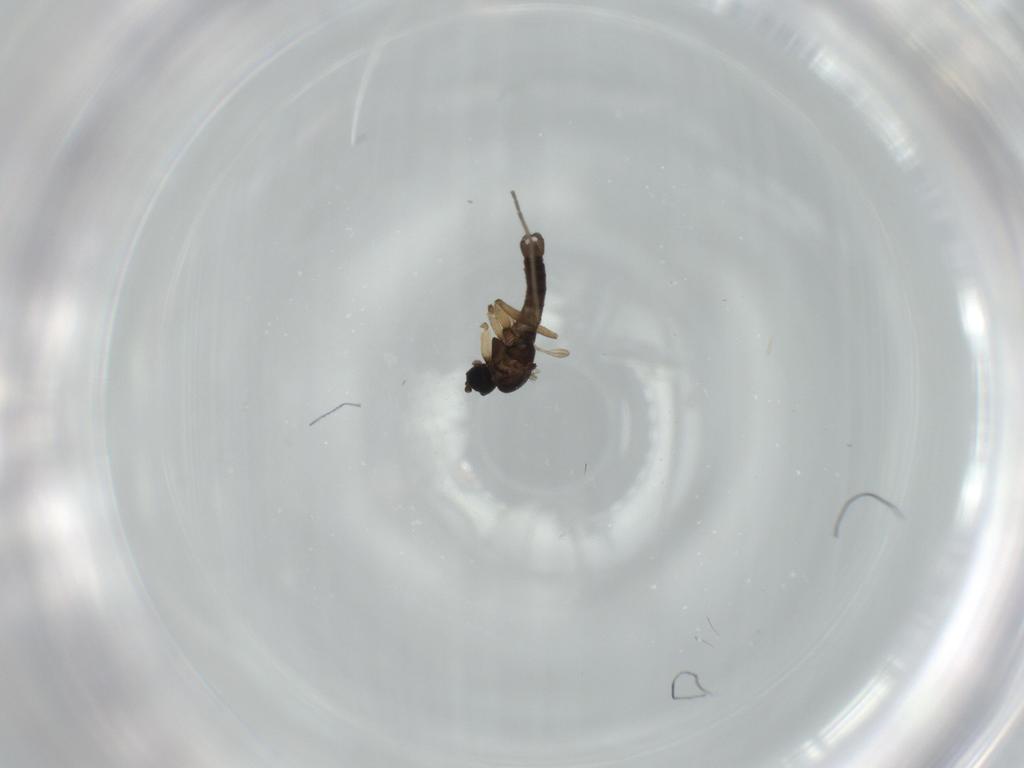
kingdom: Animalia
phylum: Arthropoda
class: Insecta
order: Diptera
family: Sciaridae
